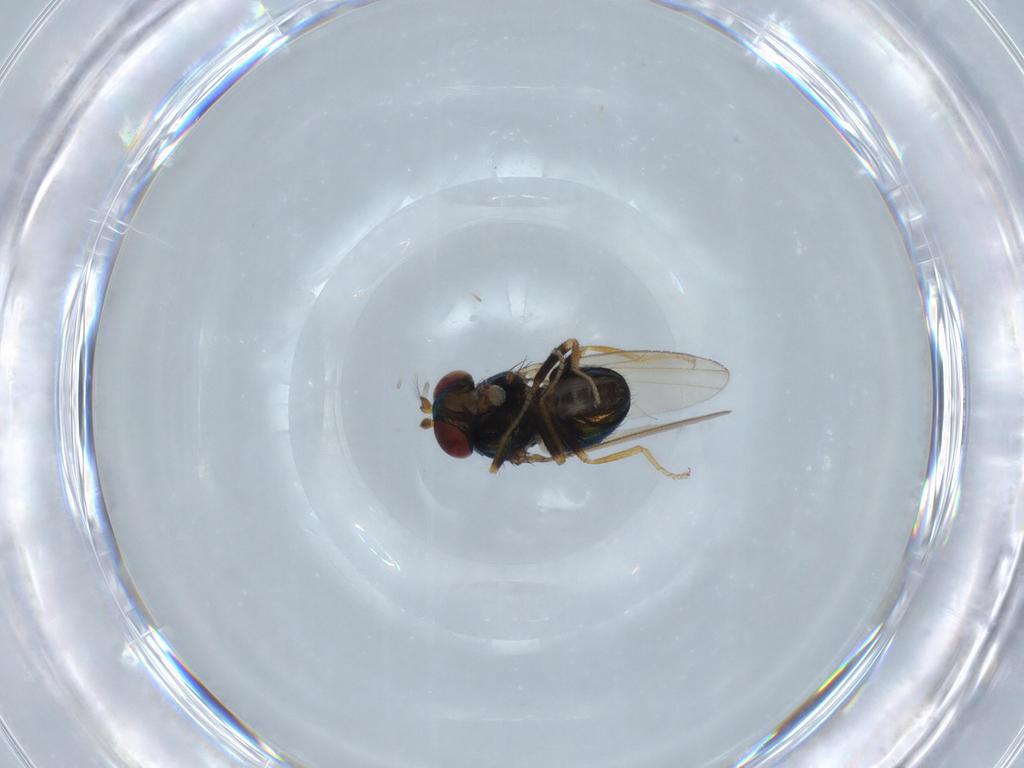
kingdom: Animalia
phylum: Arthropoda
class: Insecta
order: Diptera
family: Ephydridae
